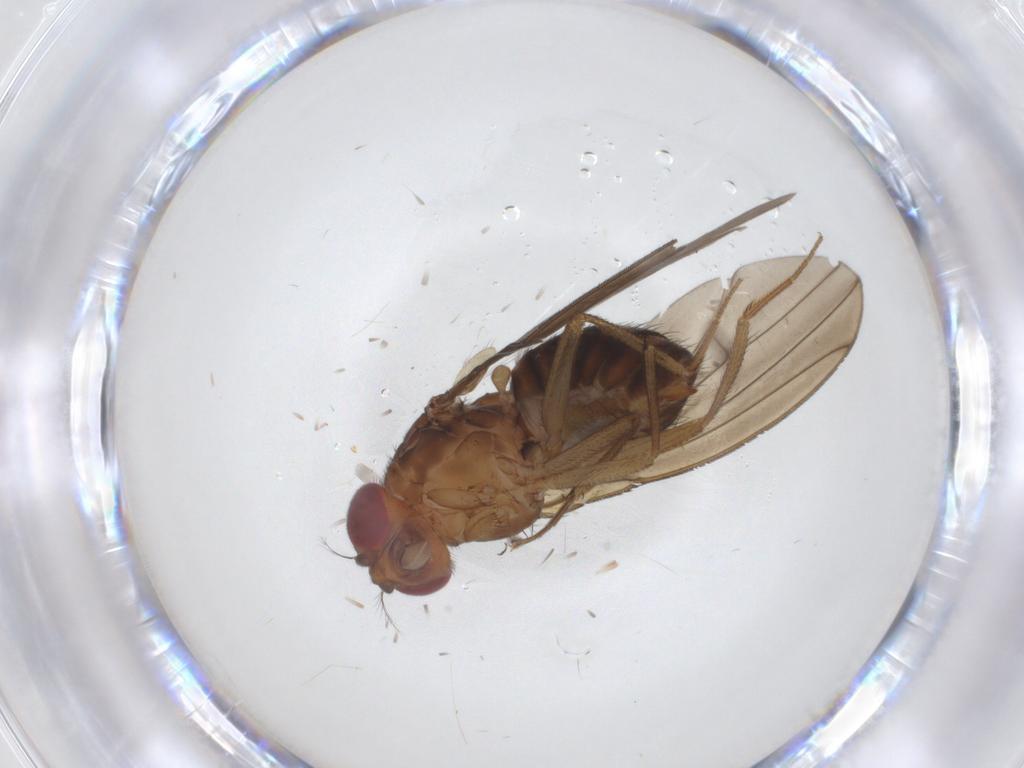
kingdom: Animalia
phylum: Arthropoda
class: Insecta
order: Diptera
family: Drosophilidae
